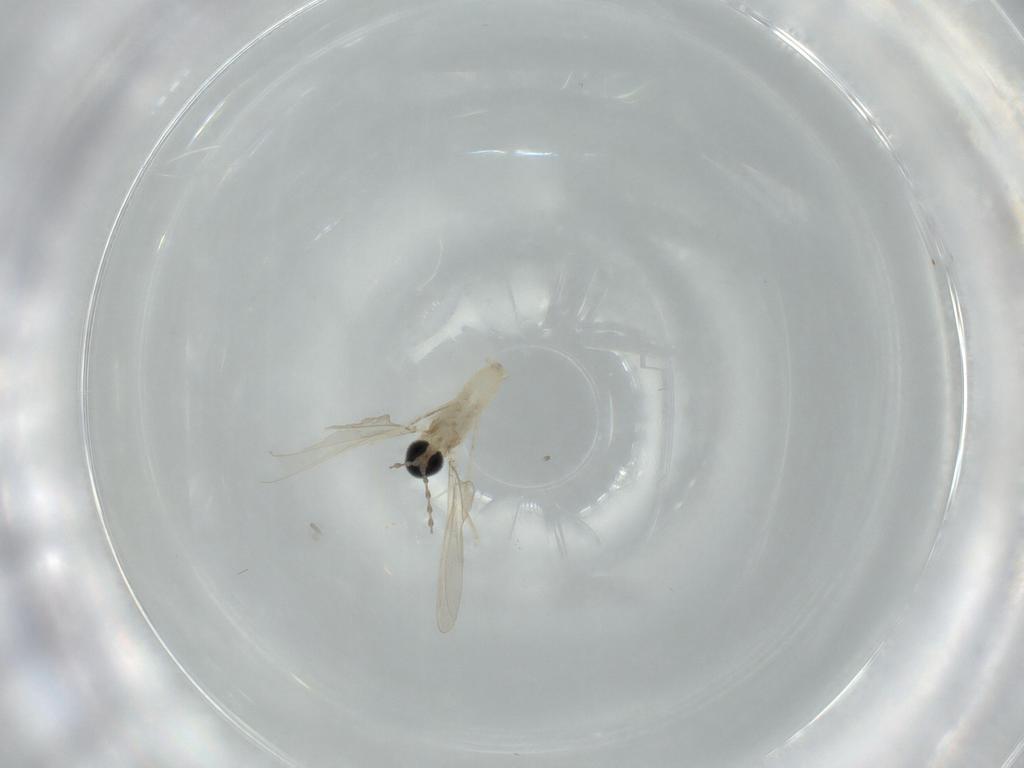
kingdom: Animalia
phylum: Arthropoda
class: Insecta
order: Diptera
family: Cecidomyiidae
